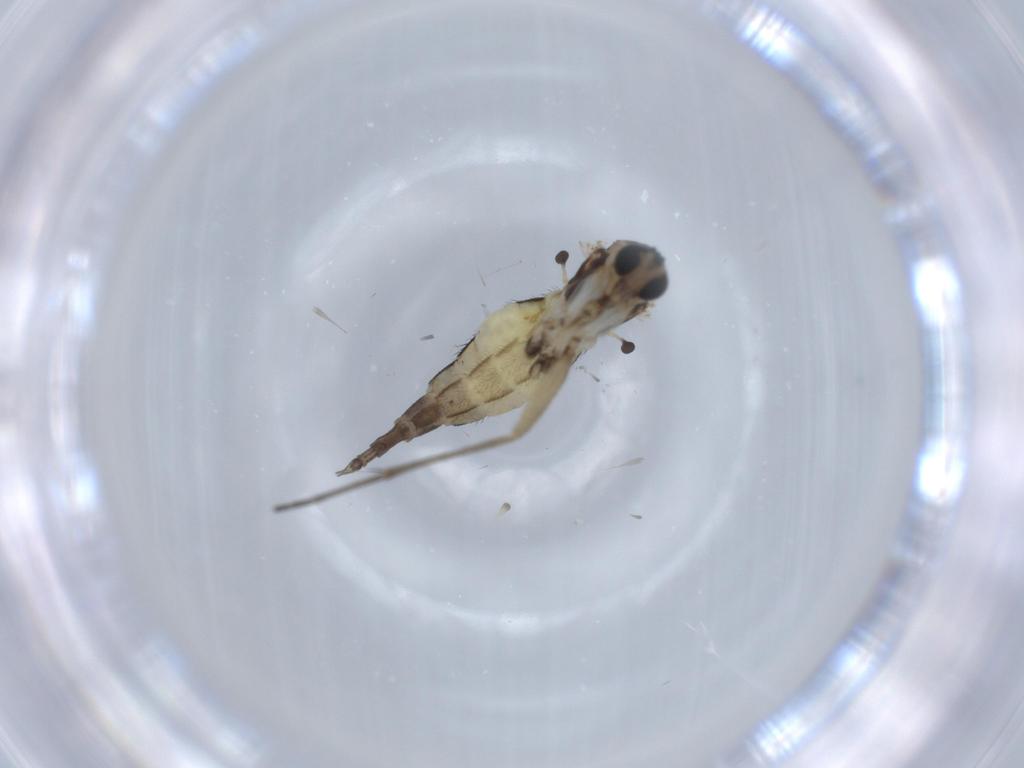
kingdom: Animalia
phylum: Arthropoda
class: Insecta
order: Diptera
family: Sciaridae
